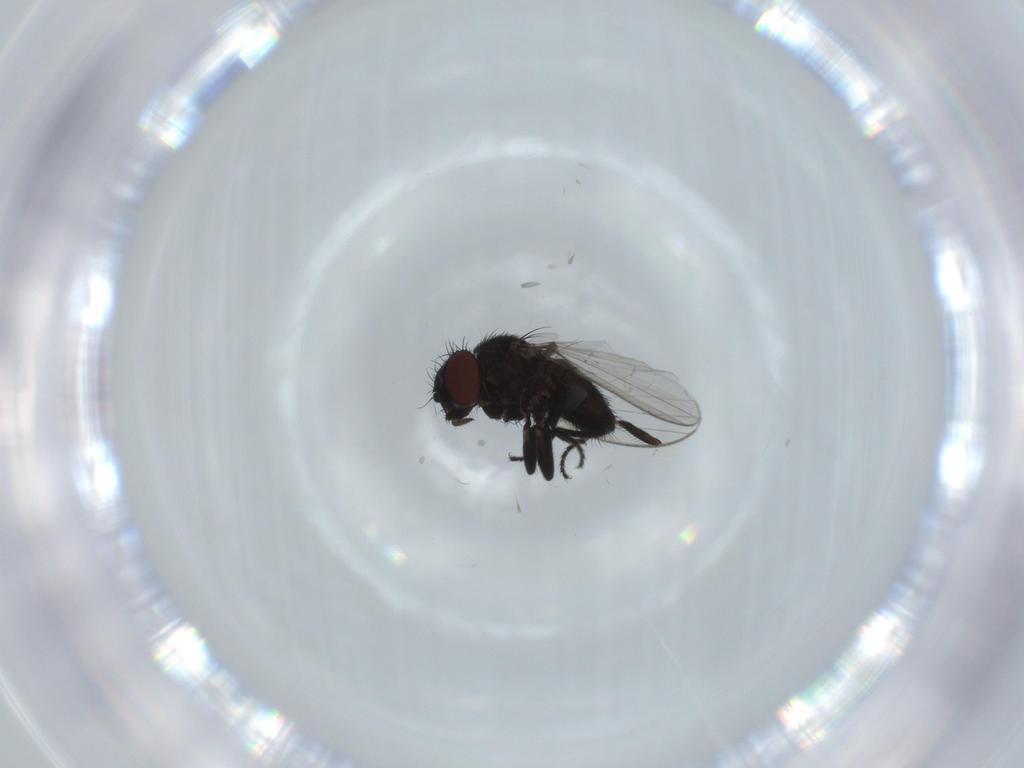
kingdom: Animalia
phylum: Arthropoda
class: Insecta
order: Diptera
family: Milichiidae
